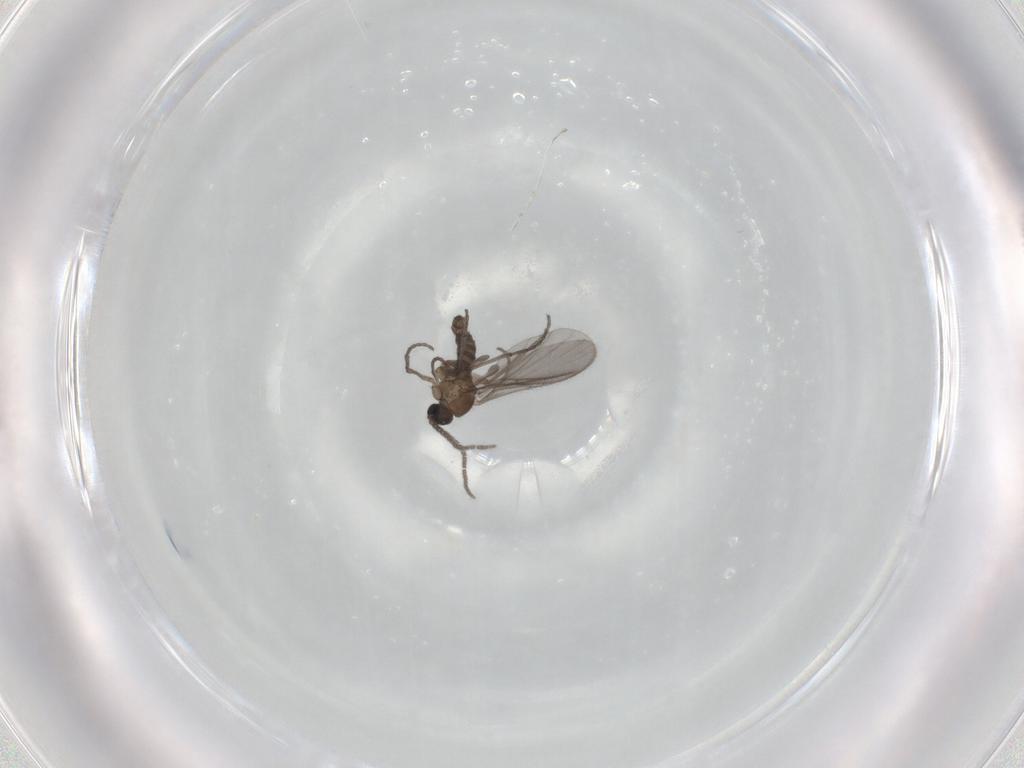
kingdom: Animalia
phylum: Arthropoda
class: Insecta
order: Diptera
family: Sciaridae
